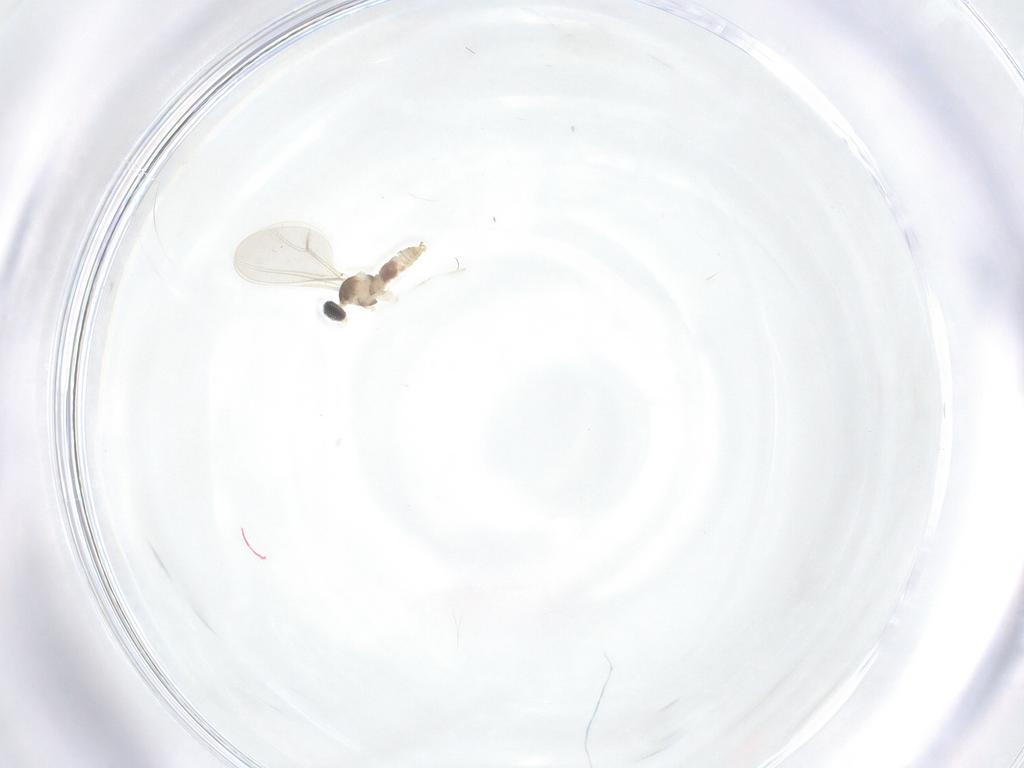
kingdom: Animalia
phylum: Arthropoda
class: Insecta
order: Diptera
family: Cecidomyiidae
